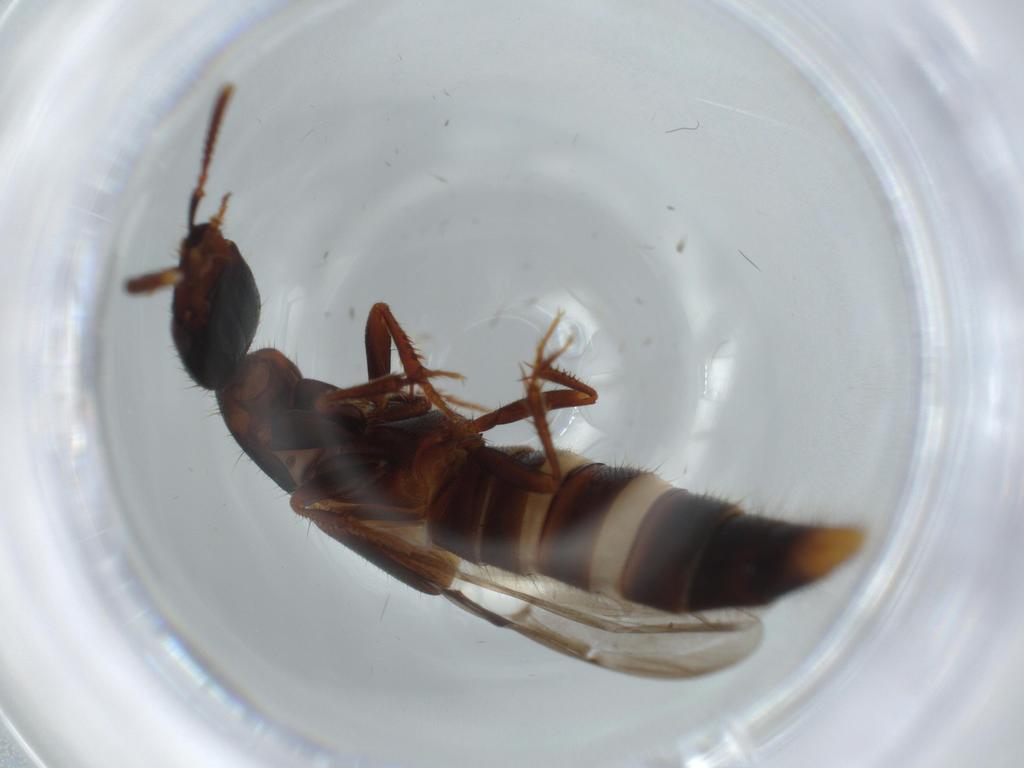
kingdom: Animalia
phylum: Arthropoda
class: Insecta
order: Coleoptera
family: Staphylinidae
